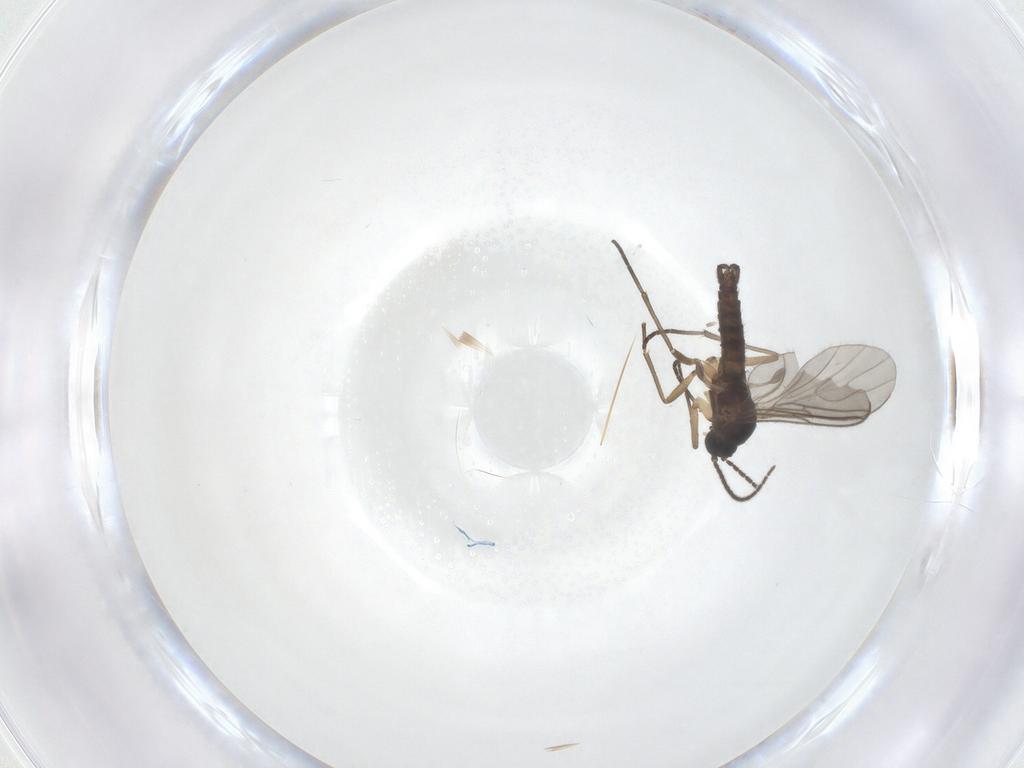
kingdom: Animalia
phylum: Arthropoda
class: Insecta
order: Diptera
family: Sciaridae
